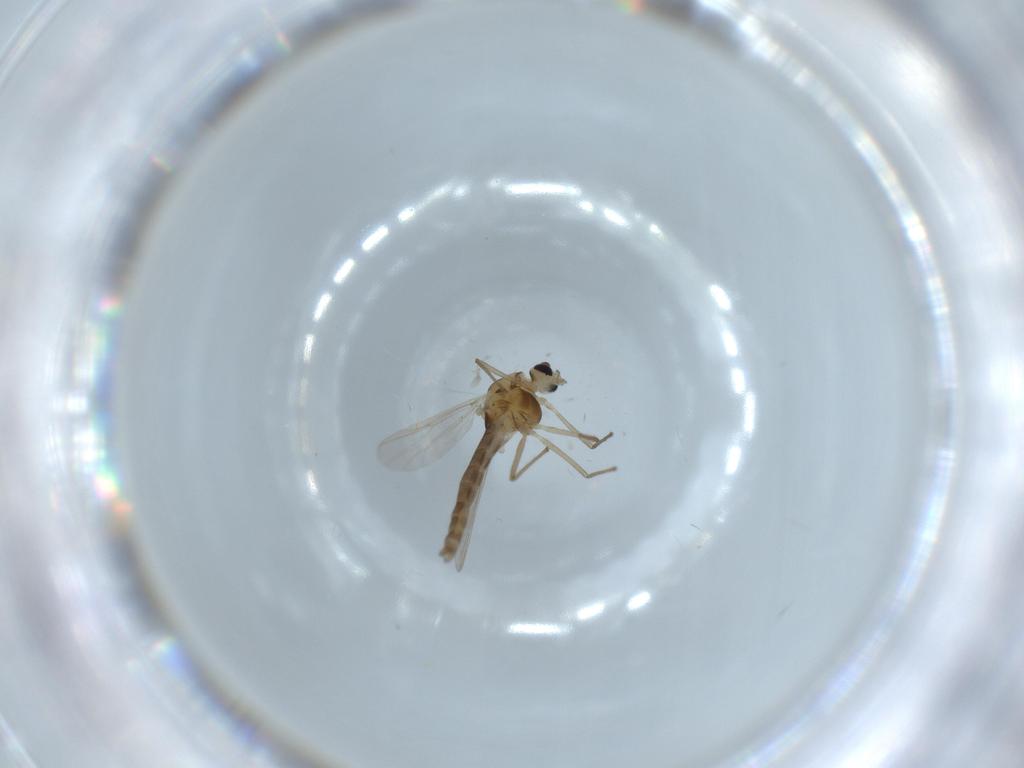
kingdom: Animalia
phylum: Arthropoda
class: Insecta
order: Diptera
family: Chironomidae
